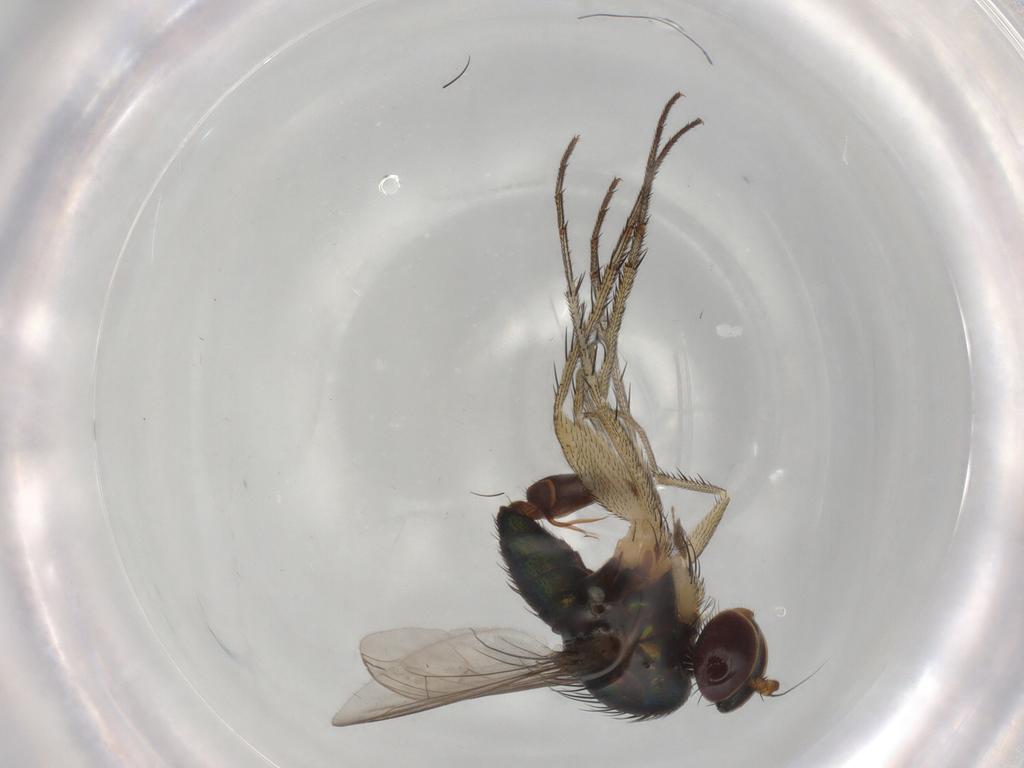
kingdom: Animalia
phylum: Arthropoda
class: Insecta
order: Diptera
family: Dolichopodidae
